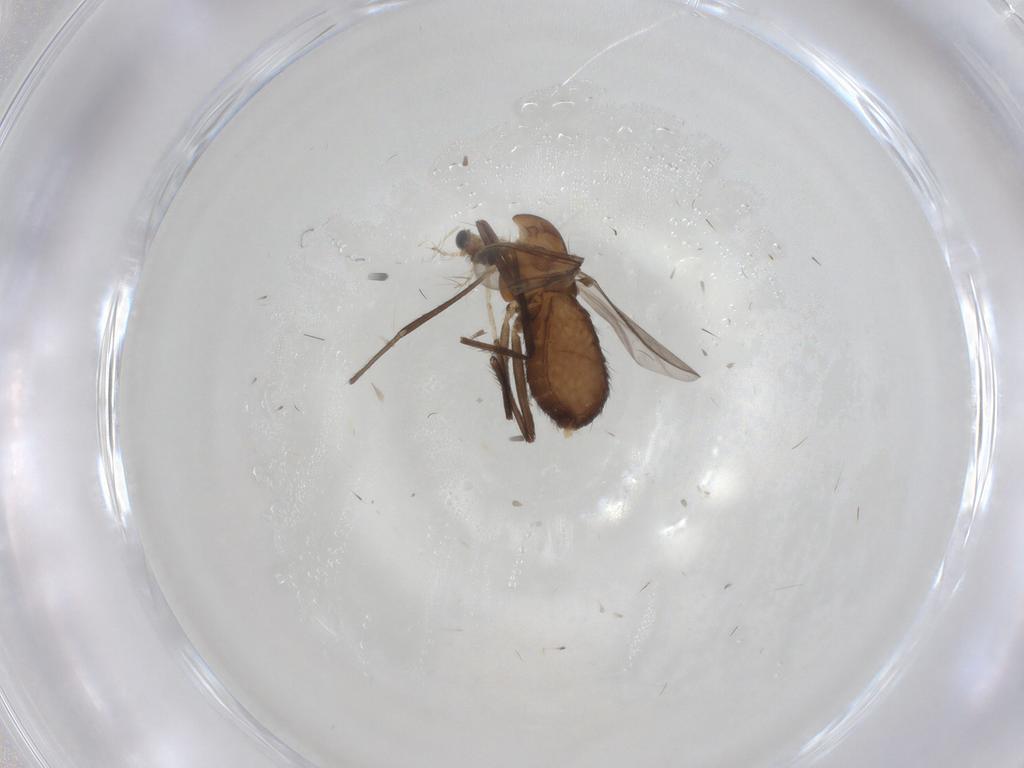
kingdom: Animalia
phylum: Arthropoda
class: Insecta
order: Diptera
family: Chironomidae
